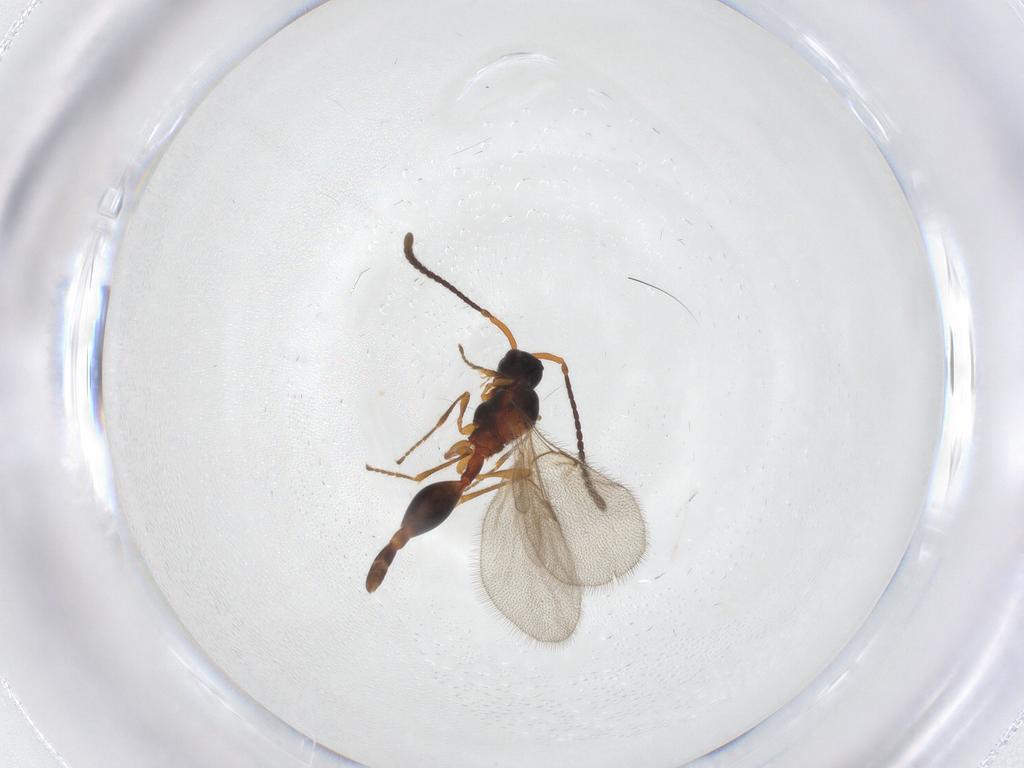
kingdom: Animalia
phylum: Arthropoda
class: Insecta
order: Hymenoptera
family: Diapriidae
